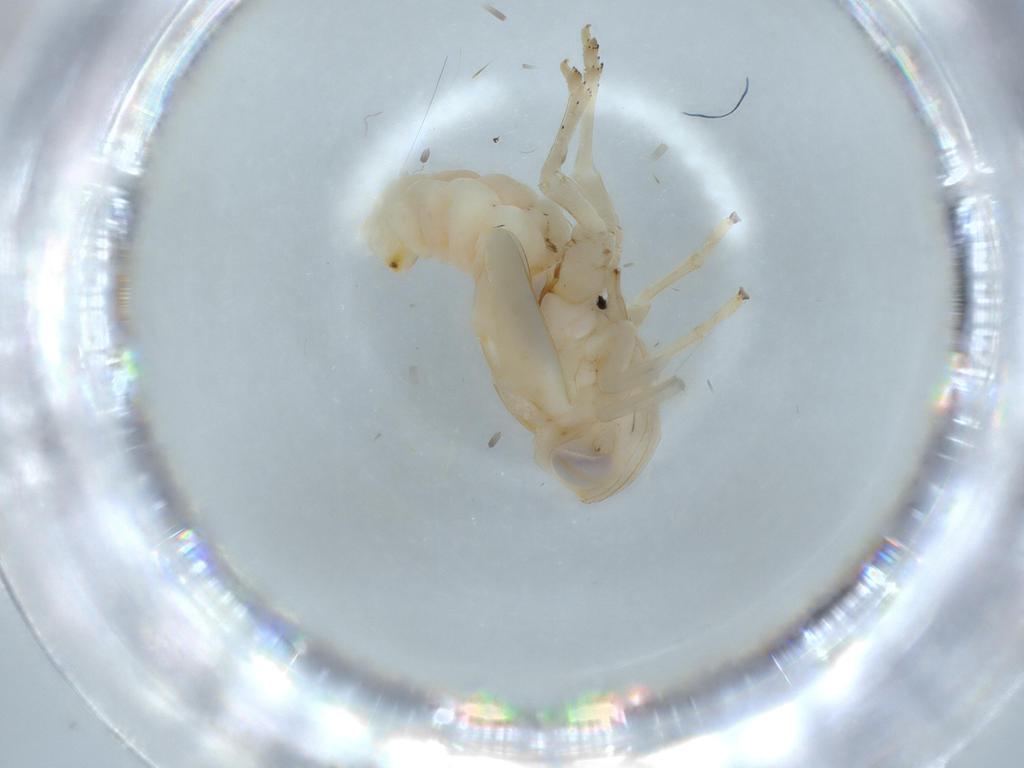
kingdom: Animalia
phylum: Arthropoda
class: Insecta
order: Hemiptera
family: Nogodinidae
